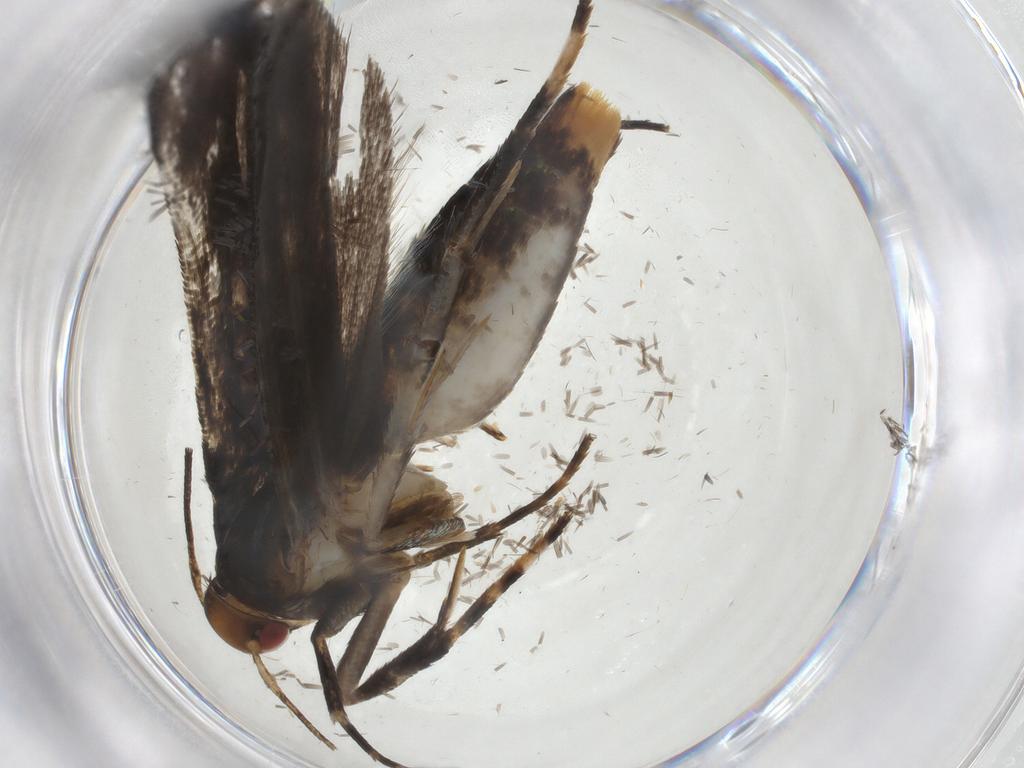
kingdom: Animalia
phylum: Arthropoda
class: Insecta
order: Lepidoptera
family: Gelechiidae
